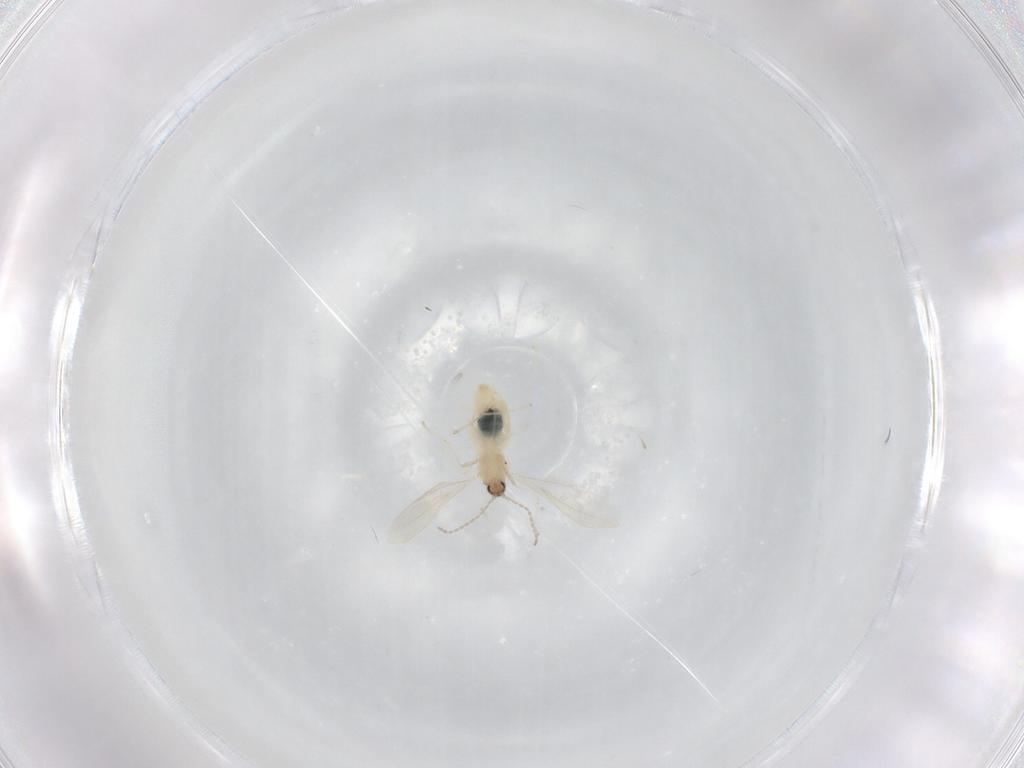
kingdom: Animalia
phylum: Arthropoda
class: Insecta
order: Diptera
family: Cecidomyiidae
